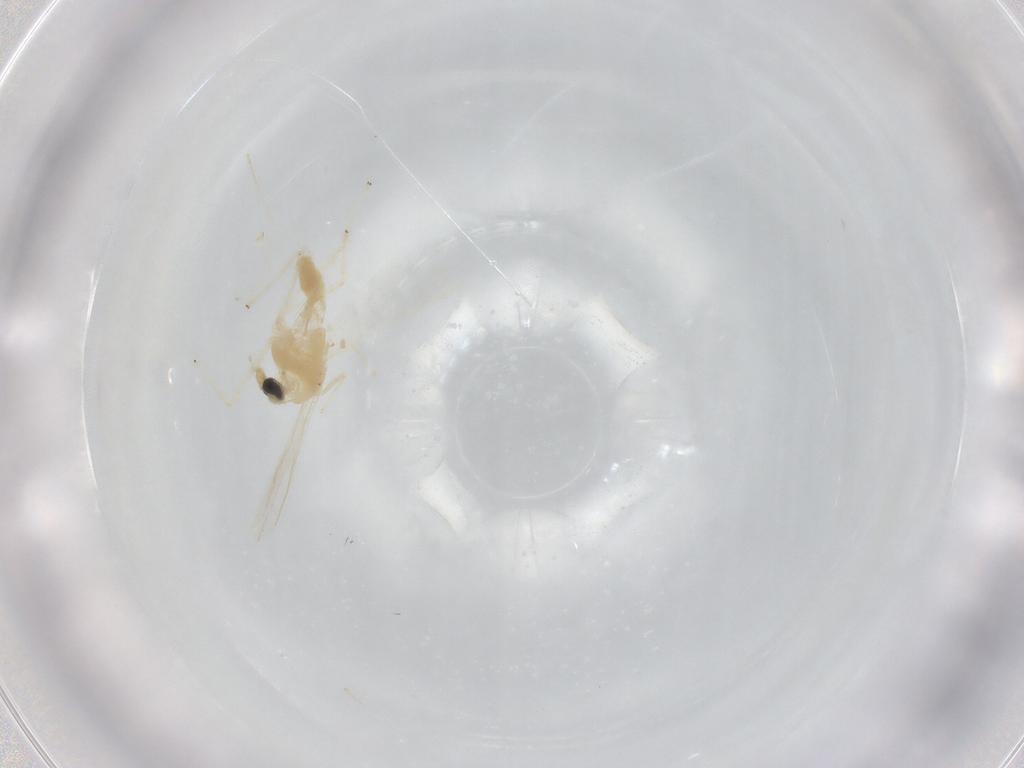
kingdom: Animalia
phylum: Arthropoda
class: Insecta
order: Diptera
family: Chironomidae
